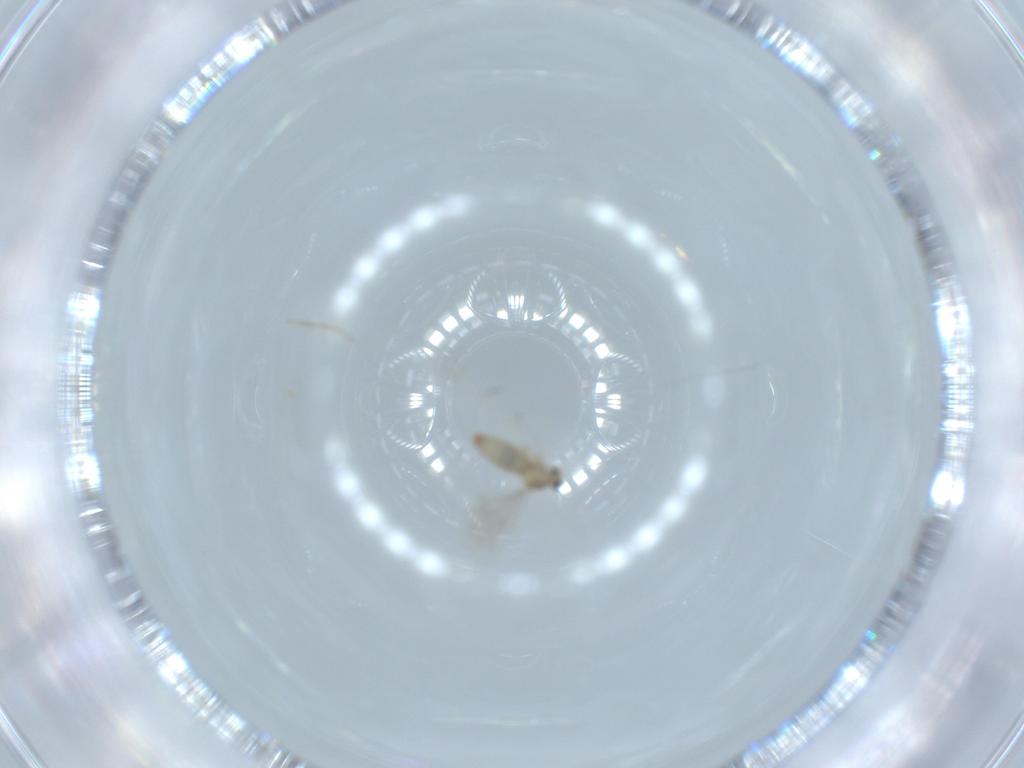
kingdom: Animalia
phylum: Arthropoda
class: Insecta
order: Diptera
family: Cecidomyiidae
